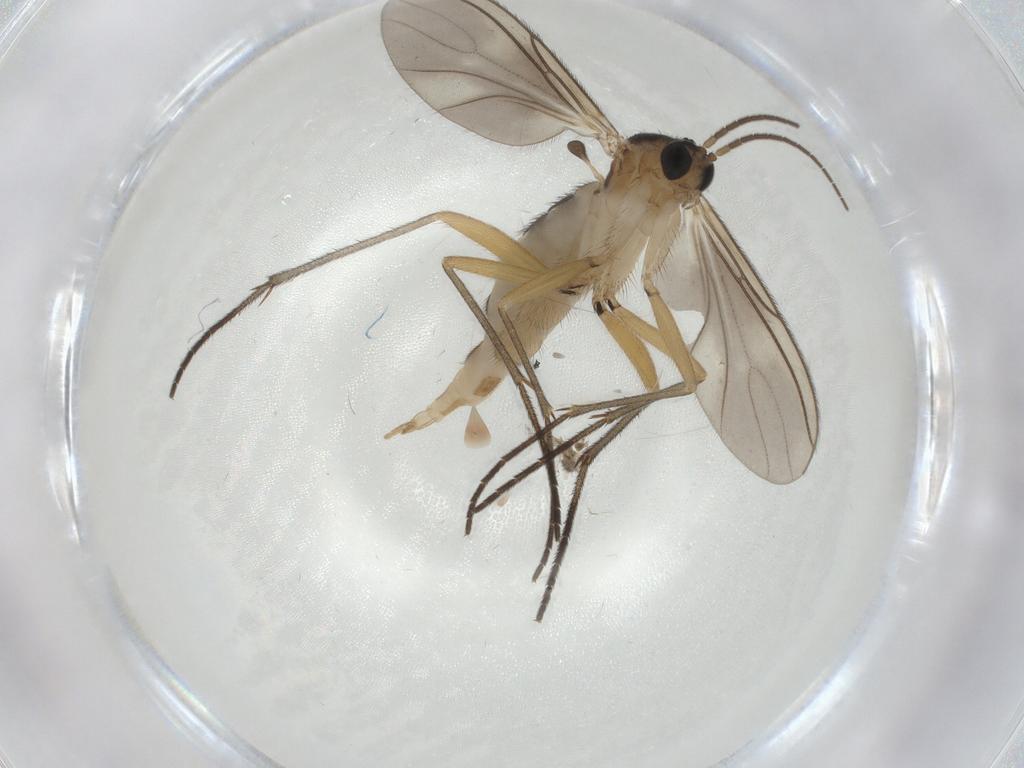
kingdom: Animalia
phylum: Arthropoda
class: Insecta
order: Diptera
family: Sciaridae
